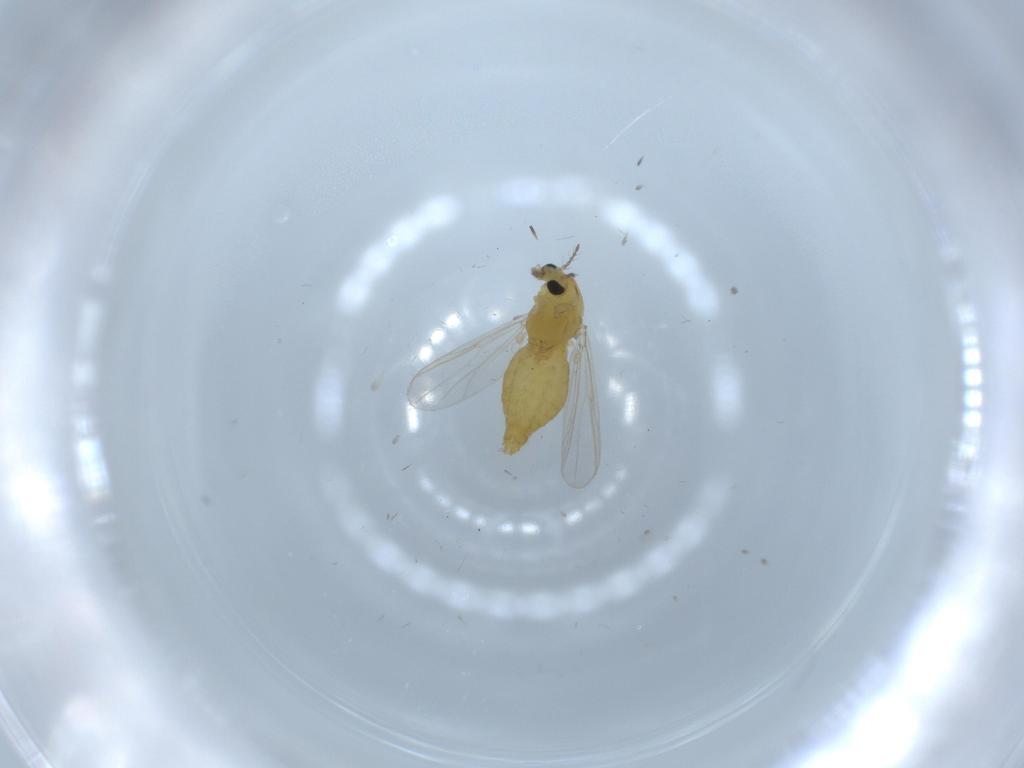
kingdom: Animalia
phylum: Arthropoda
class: Insecta
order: Diptera
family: Chironomidae
